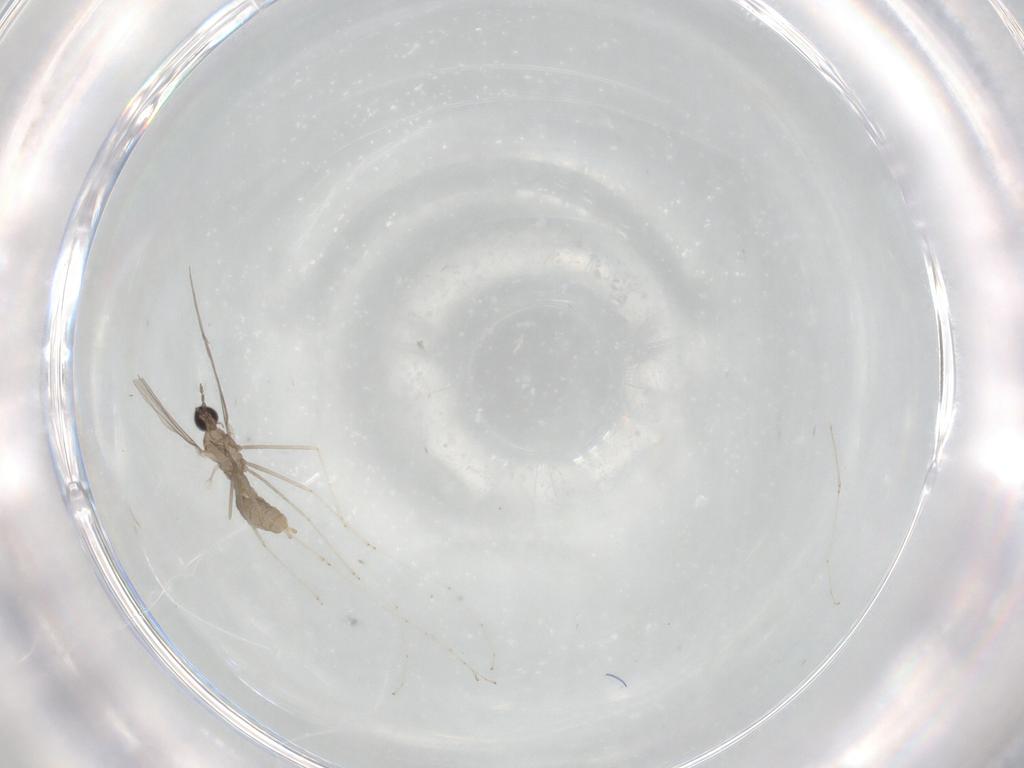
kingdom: Animalia
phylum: Arthropoda
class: Insecta
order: Diptera
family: Cecidomyiidae
